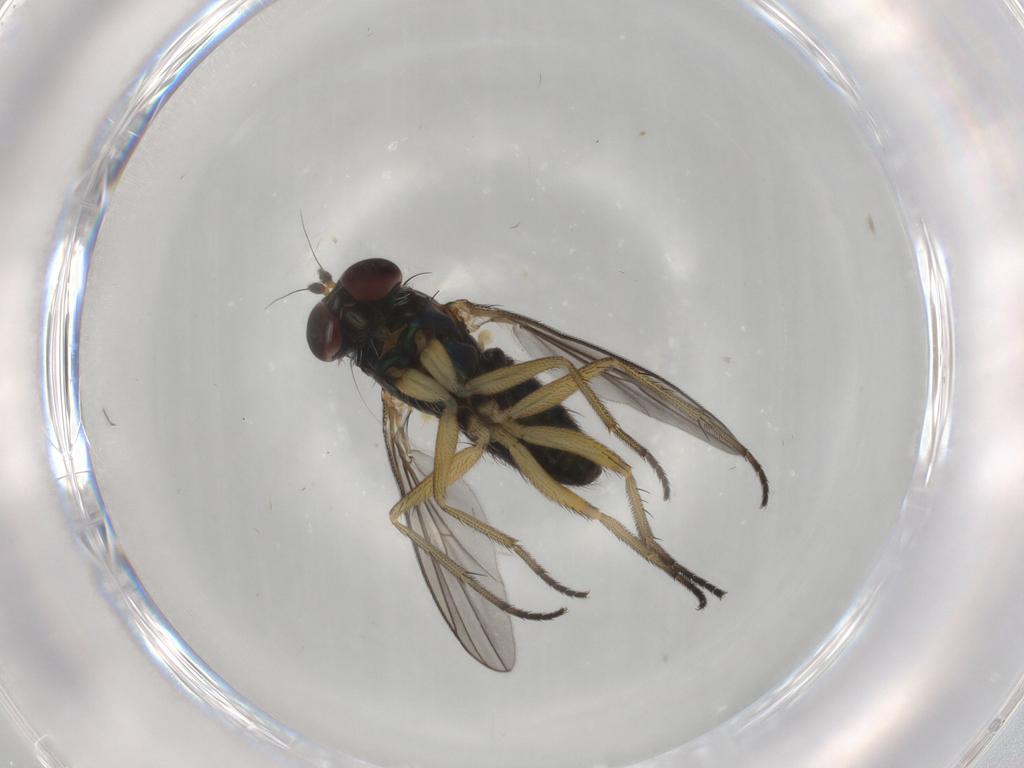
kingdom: Animalia
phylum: Arthropoda
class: Insecta
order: Diptera
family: Dolichopodidae
